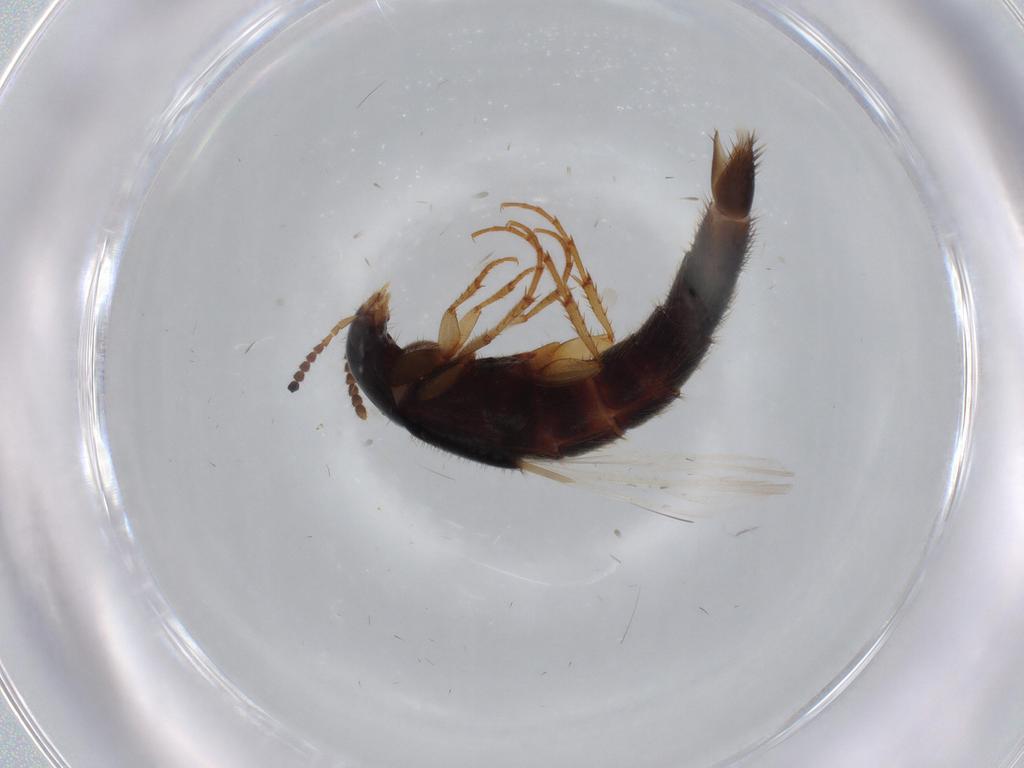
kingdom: Animalia
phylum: Arthropoda
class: Insecta
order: Coleoptera
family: Staphylinidae
